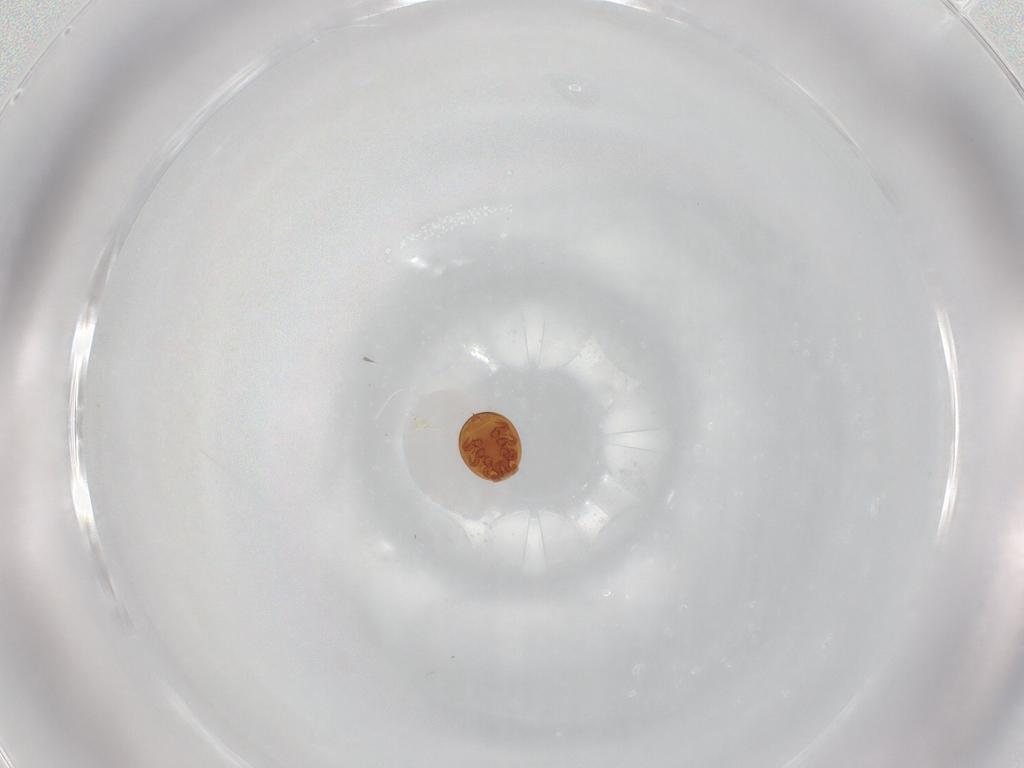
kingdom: Animalia
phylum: Arthropoda
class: Arachnida
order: Mesostigmata
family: Uropodidae
